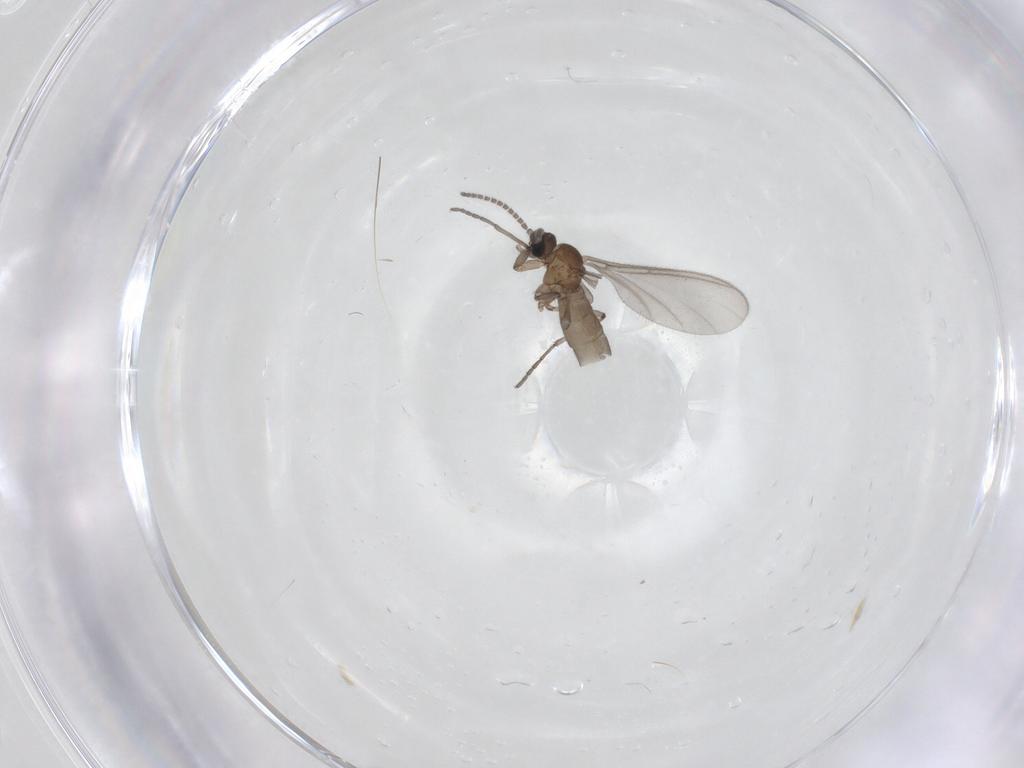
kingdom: Animalia
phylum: Arthropoda
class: Insecta
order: Diptera
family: Sciaridae
